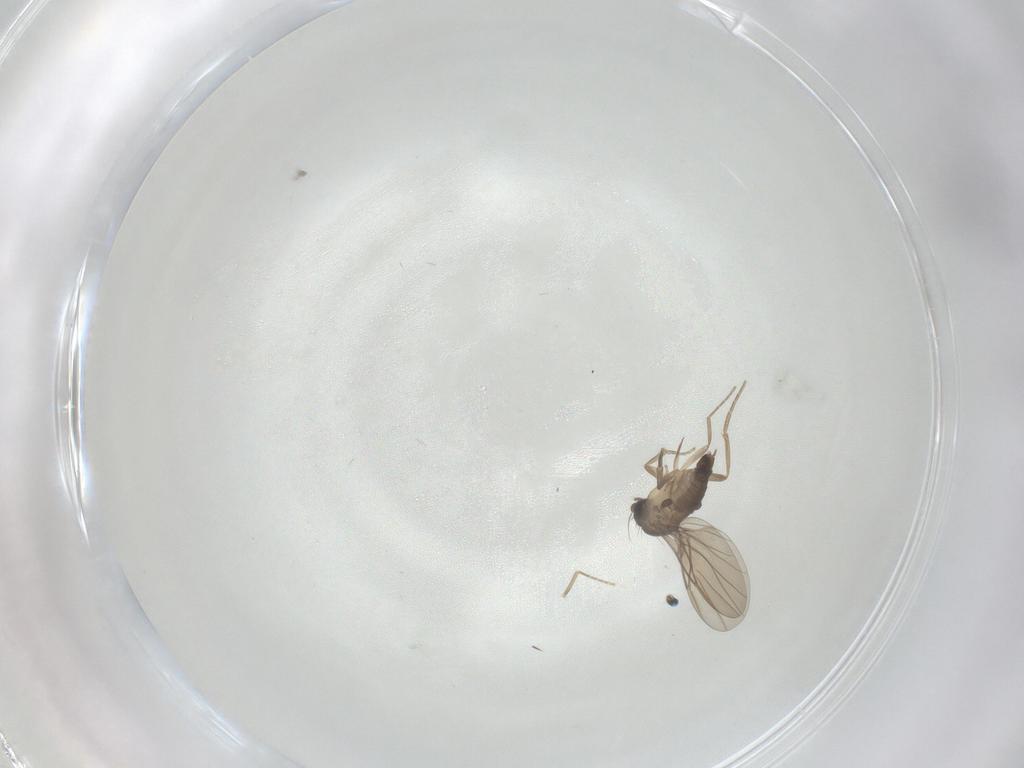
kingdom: Animalia
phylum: Arthropoda
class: Insecta
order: Diptera
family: Phoridae
